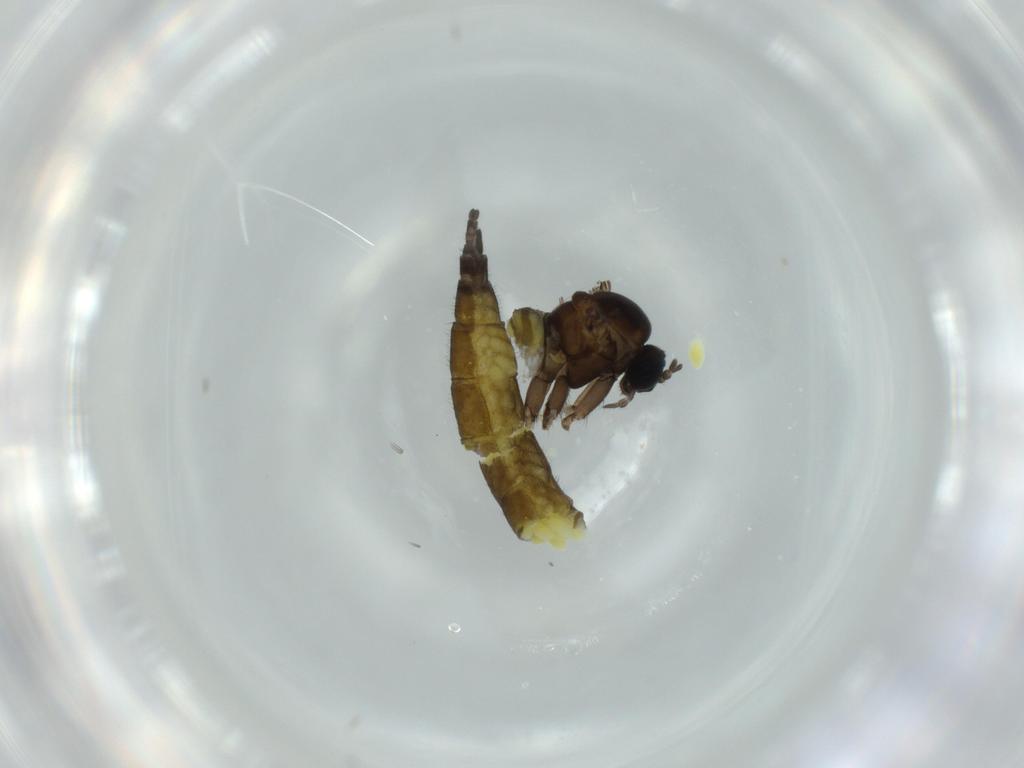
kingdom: Animalia
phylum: Arthropoda
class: Insecta
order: Diptera
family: Sciaridae
